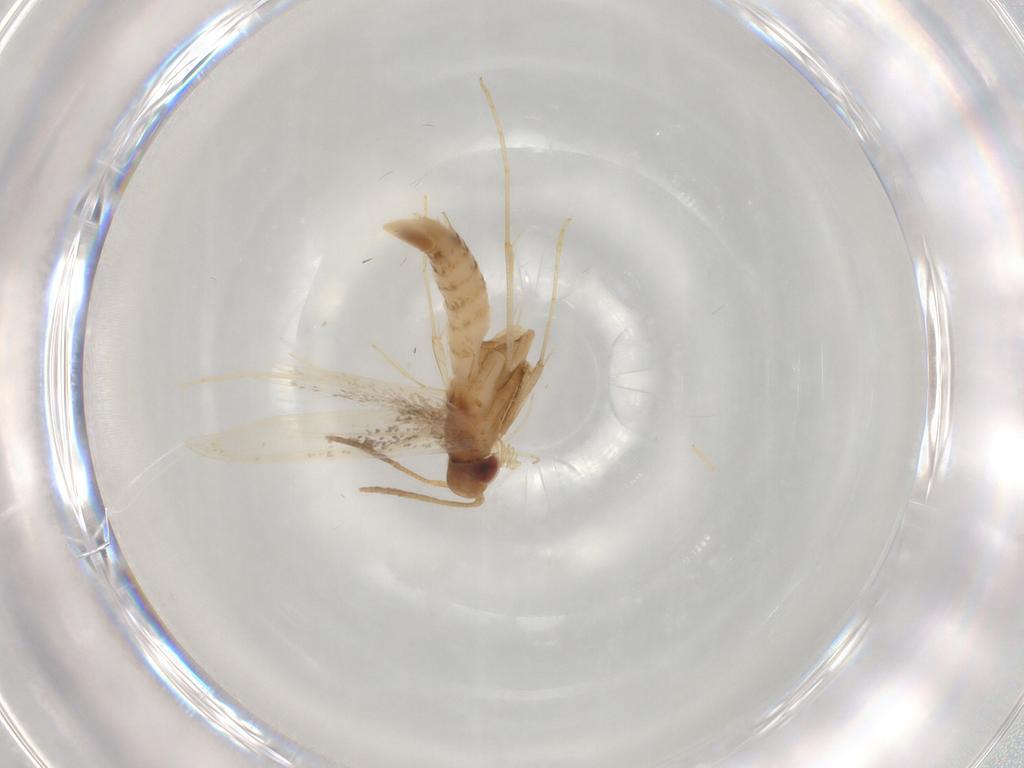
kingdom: Animalia
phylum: Arthropoda
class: Insecta
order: Lepidoptera
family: Gracillariidae
